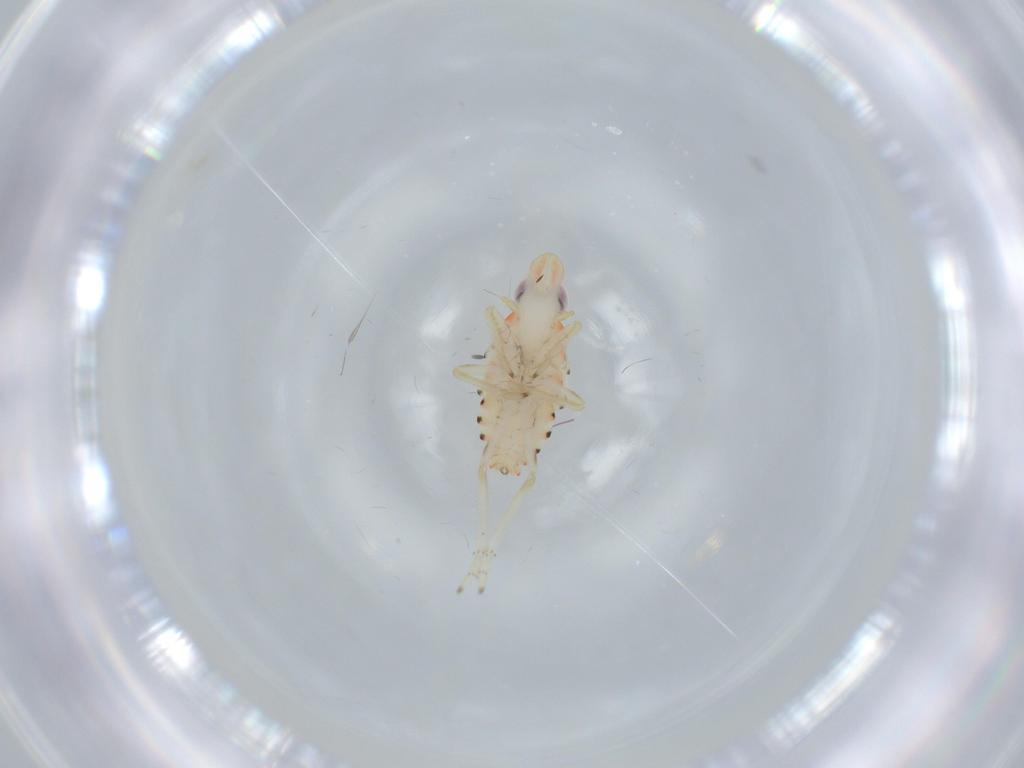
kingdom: Animalia
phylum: Arthropoda
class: Insecta
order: Hemiptera
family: Tropiduchidae
